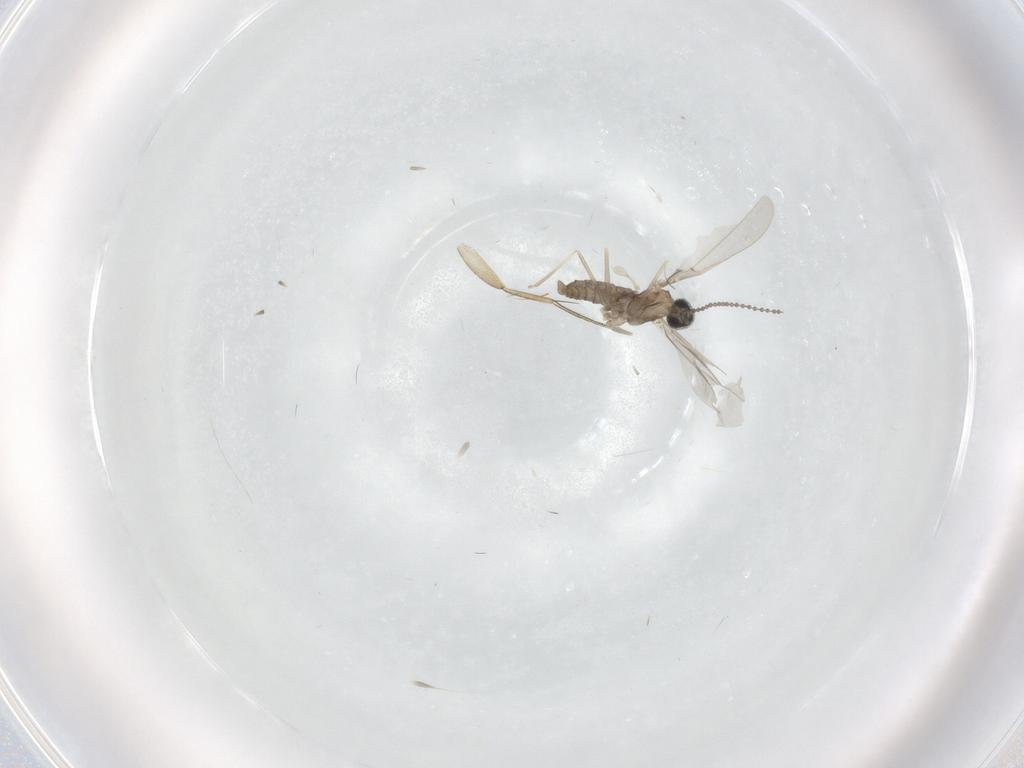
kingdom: Animalia
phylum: Arthropoda
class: Insecta
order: Diptera
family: Cecidomyiidae
